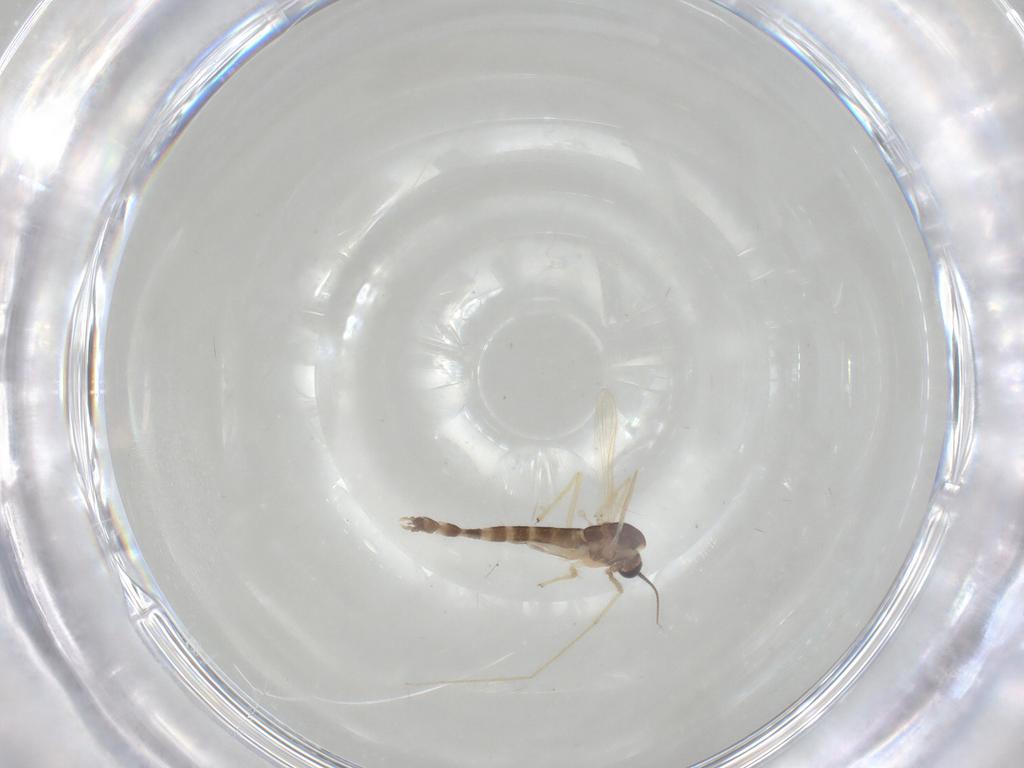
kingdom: Animalia
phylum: Arthropoda
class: Insecta
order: Diptera
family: Chironomidae
